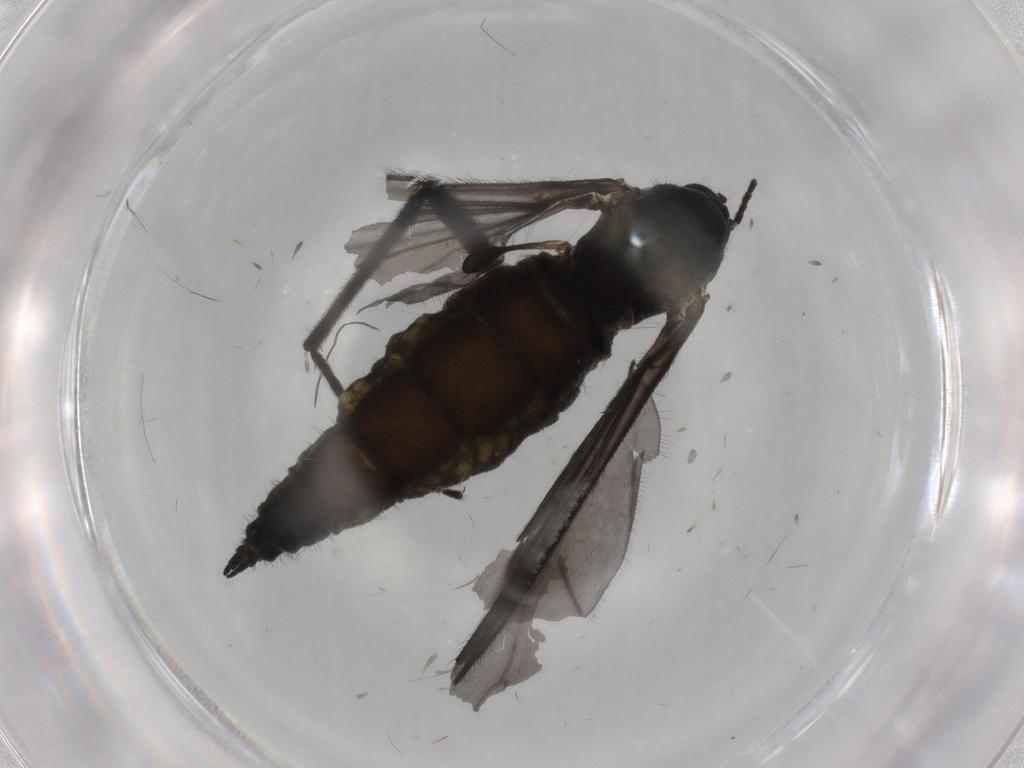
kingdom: Animalia
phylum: Arthropoda
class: Insecta
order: Diptera
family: Sciaridae
